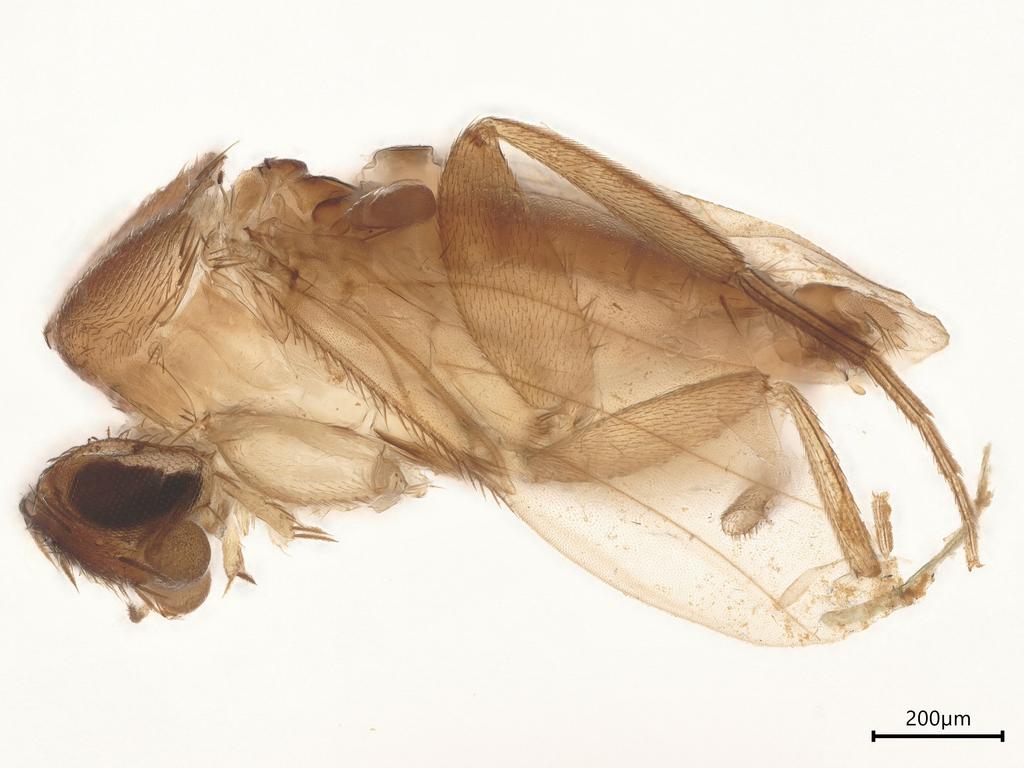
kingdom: Animalia
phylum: Arthropoda
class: Insecta
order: Diptera
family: Phoridae
